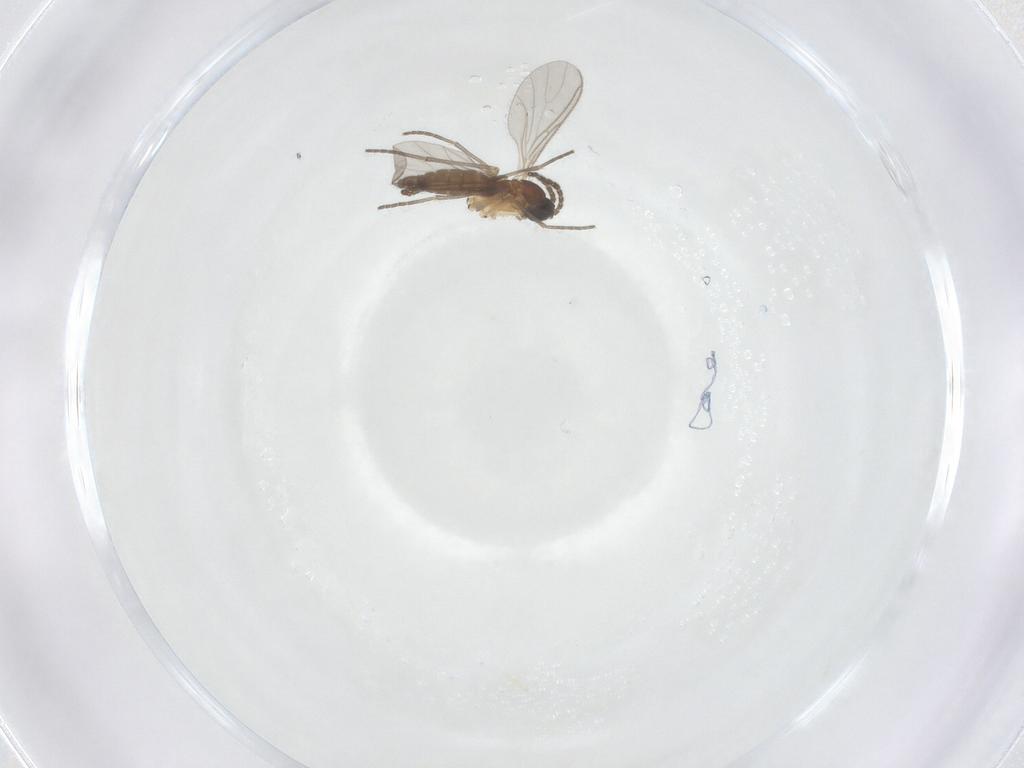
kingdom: Animalia
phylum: Arthropoda
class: Insecta
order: Diptera
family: Sciaridae
